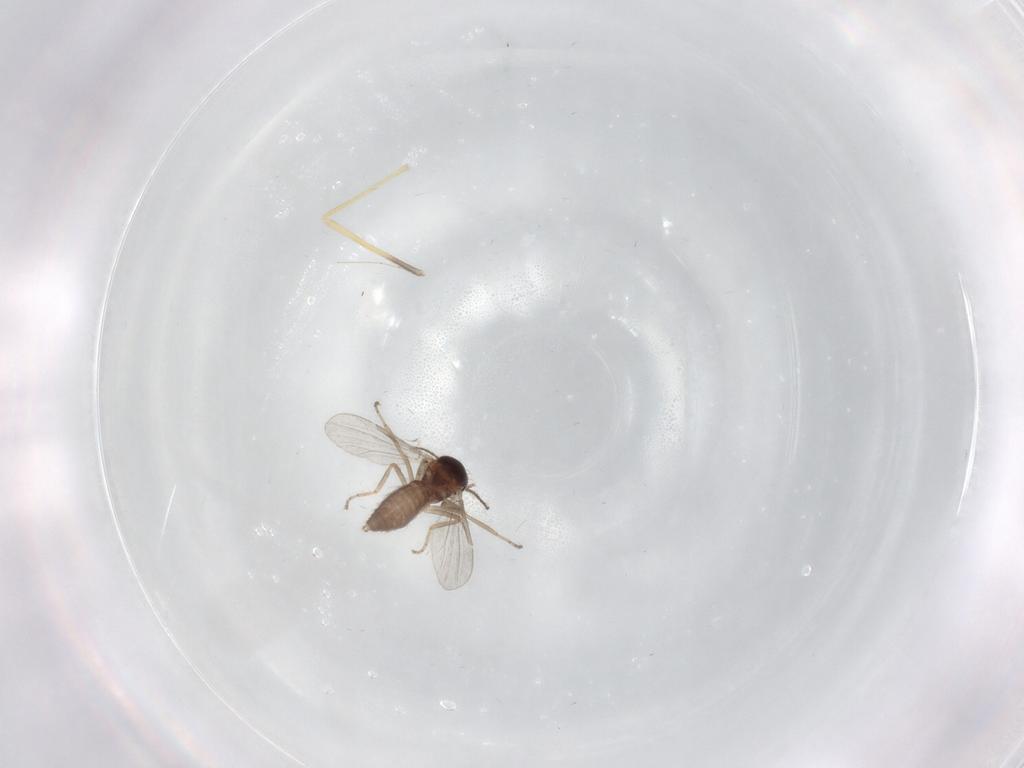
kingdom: Animalia
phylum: Arthropoda
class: Insecta
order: Diptera
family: Ceratopogonidae
